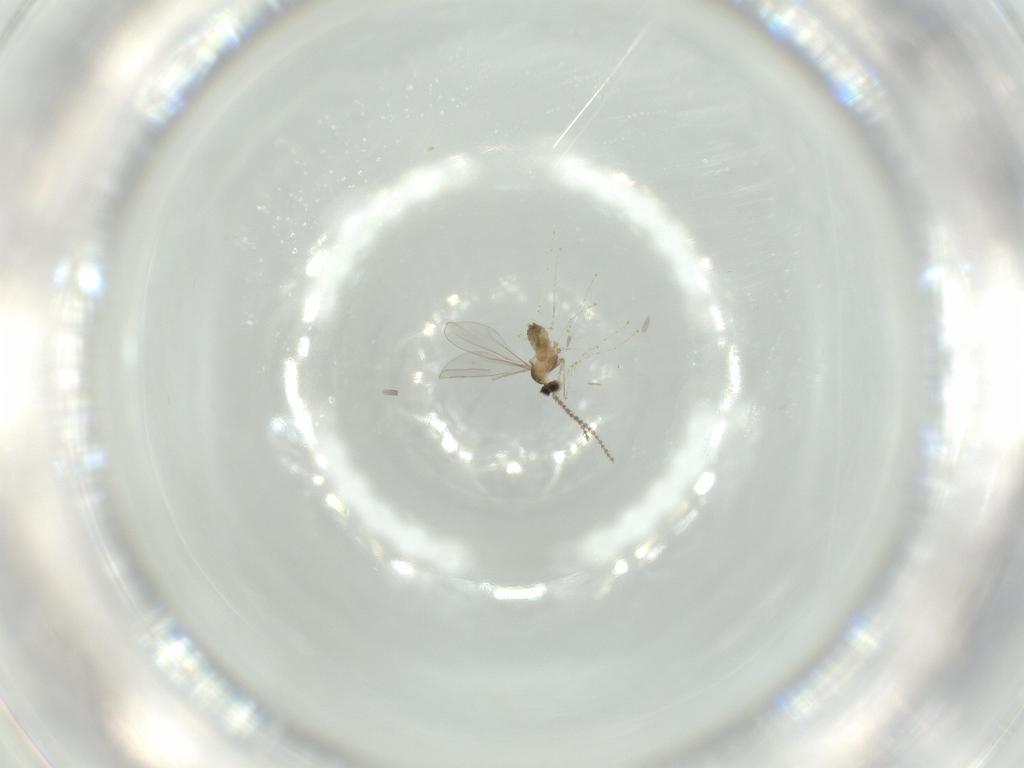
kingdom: Animalia
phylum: Arthropoda
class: Insecta
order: Diptera
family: Cecidomyiidae
